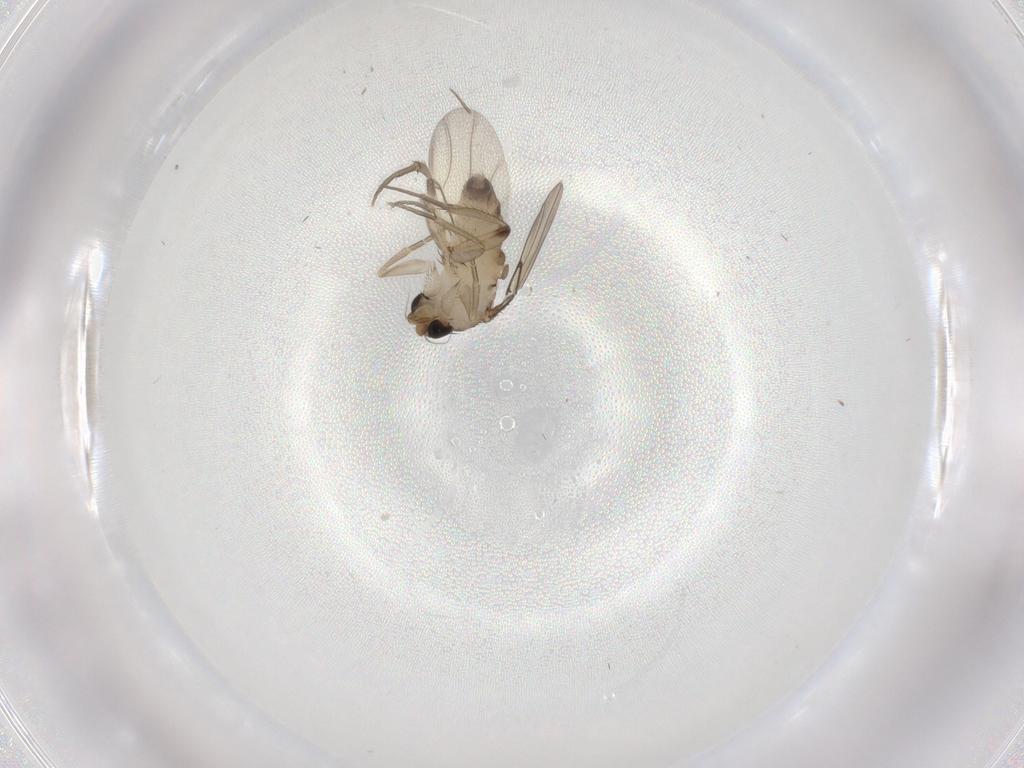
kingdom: Animalia
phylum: Arthropoda
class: Insecta
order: Diptera
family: Phoridae
